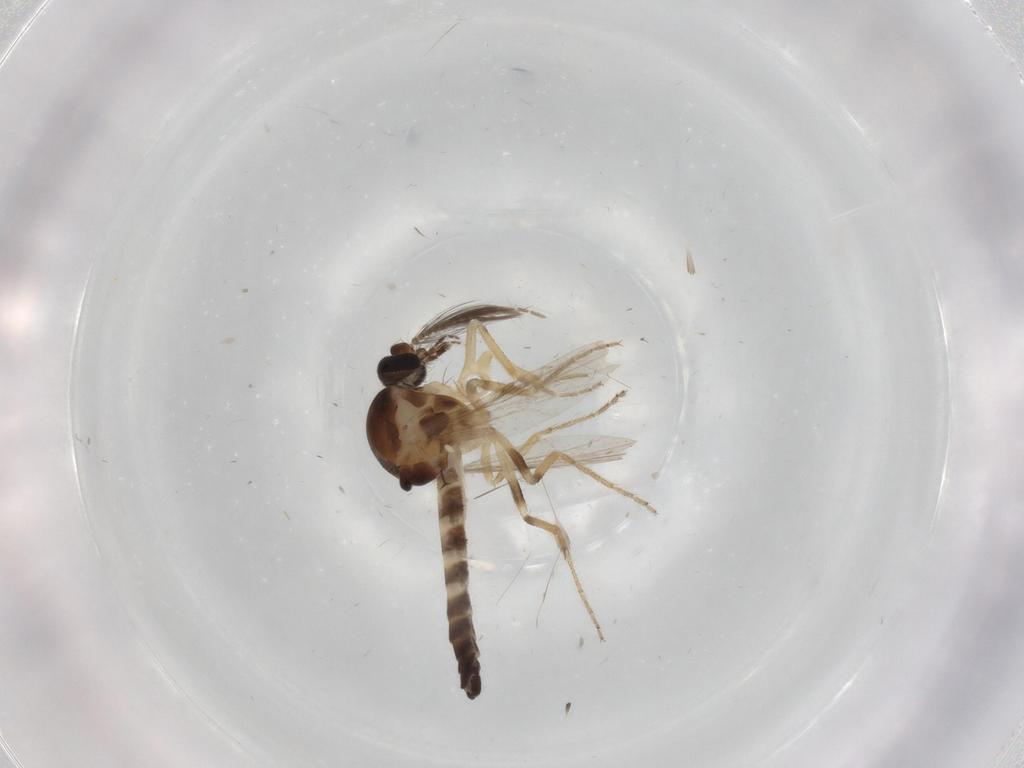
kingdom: Animalia
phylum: Arthropoda
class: Insecta
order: Diptera
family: Ceratopogonidae
